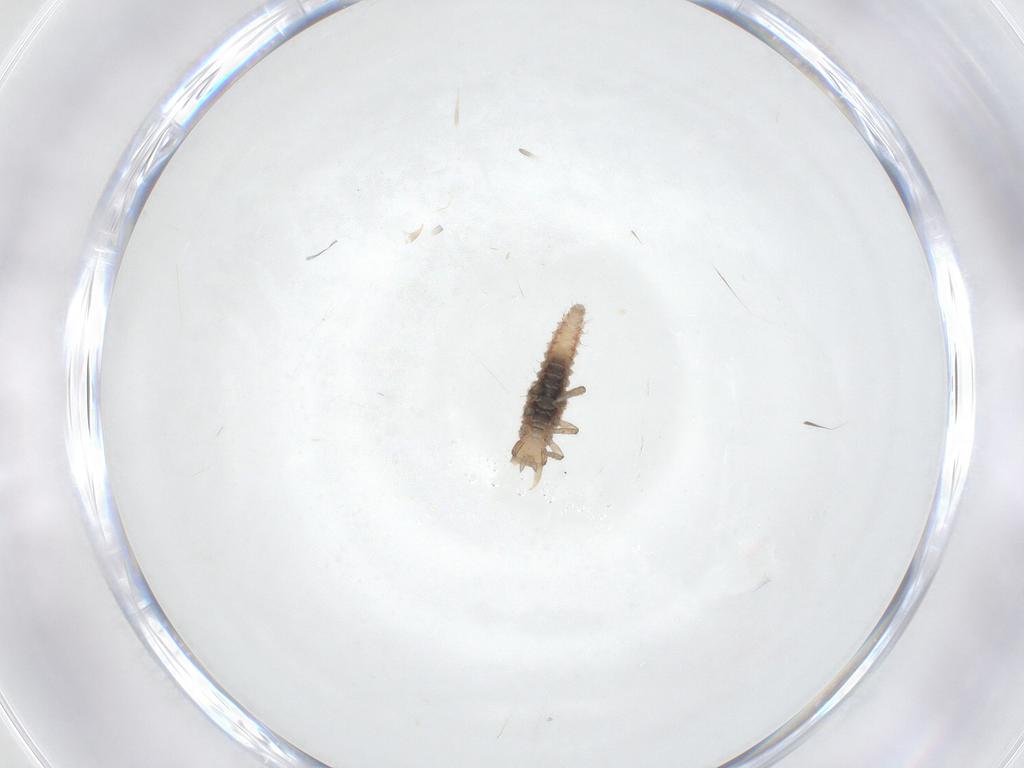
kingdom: Animalia
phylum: Arthropoda
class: Insecta
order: Neuroptera
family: Hemerobiidae
